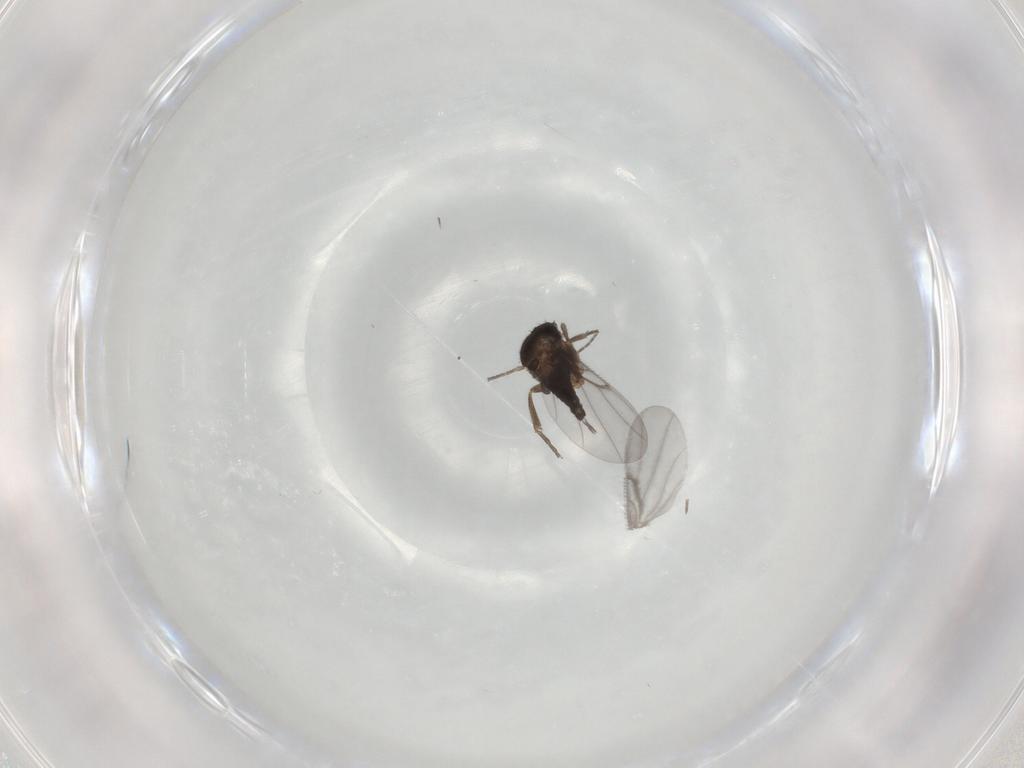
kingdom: Animalia
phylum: Arthropoda
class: Insecta
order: Diptera
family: Phoridae
